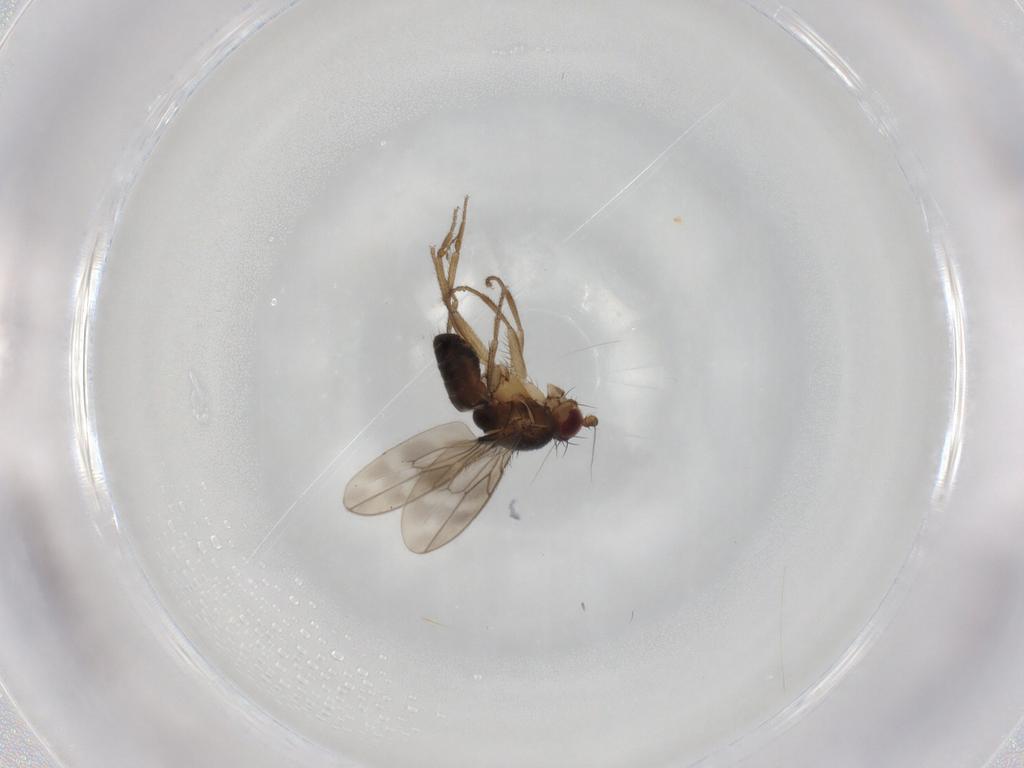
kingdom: Animalia
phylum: Arthropoda
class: Insecta
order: Diptera
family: Sphaeroceridae
